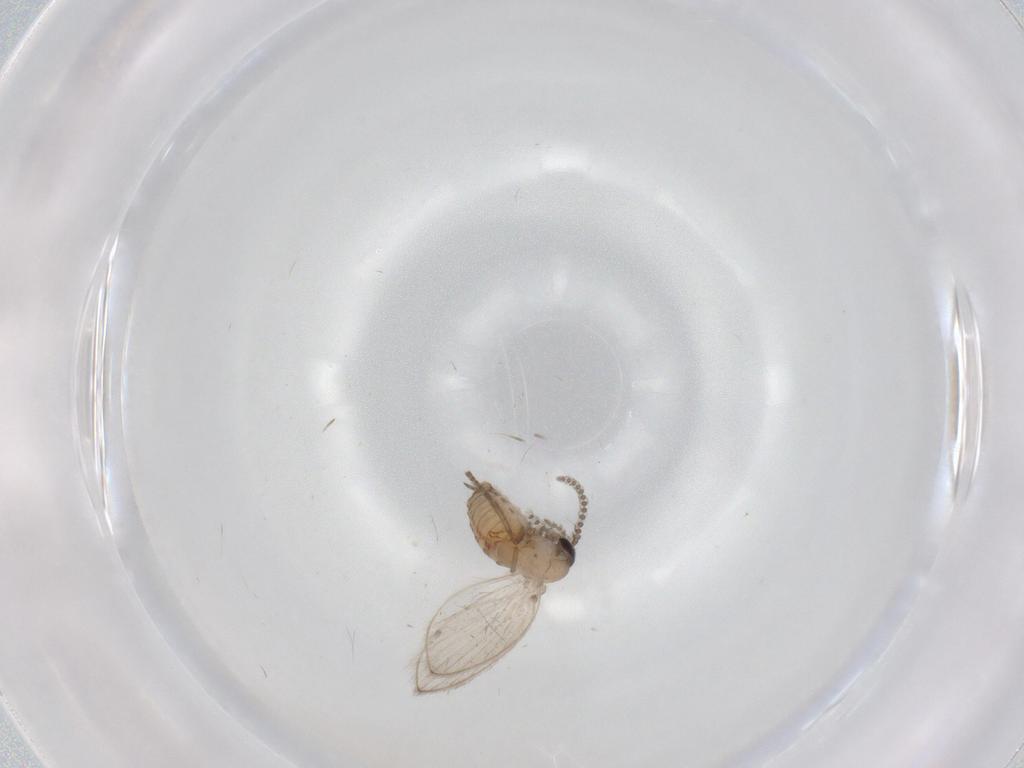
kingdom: Animalia
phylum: Arthropoda
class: Insecta
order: Diptera
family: Psychodidae
